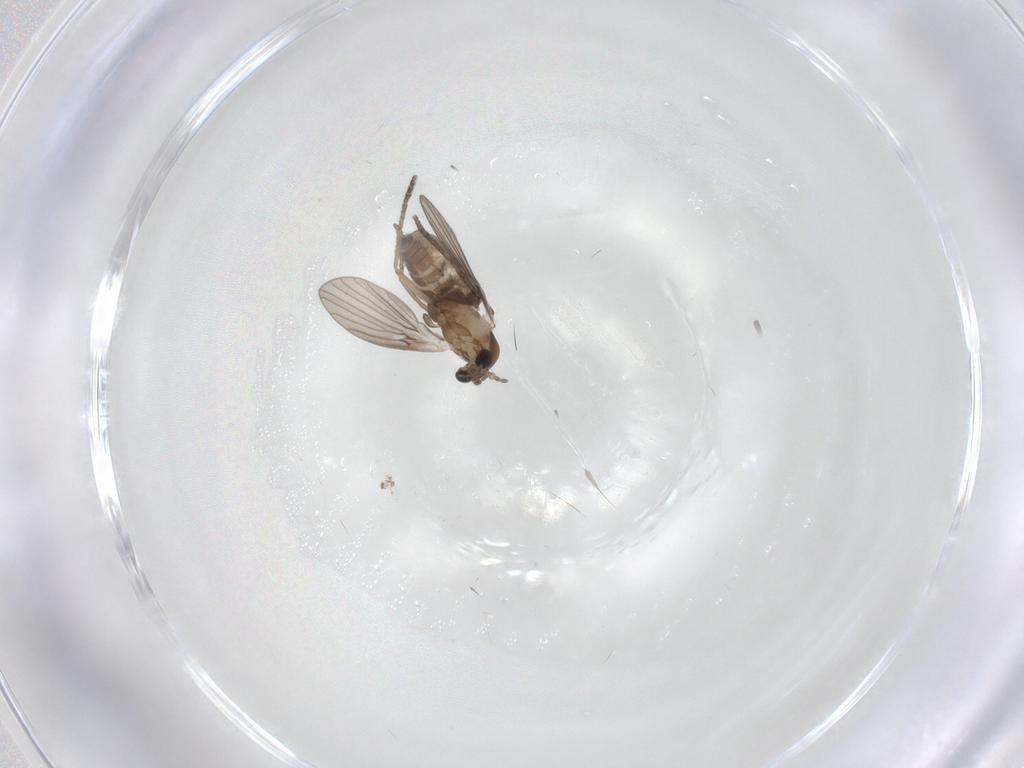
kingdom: Animalia
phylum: Arthropoda
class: Insecta
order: Diptera
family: Psychodidae
